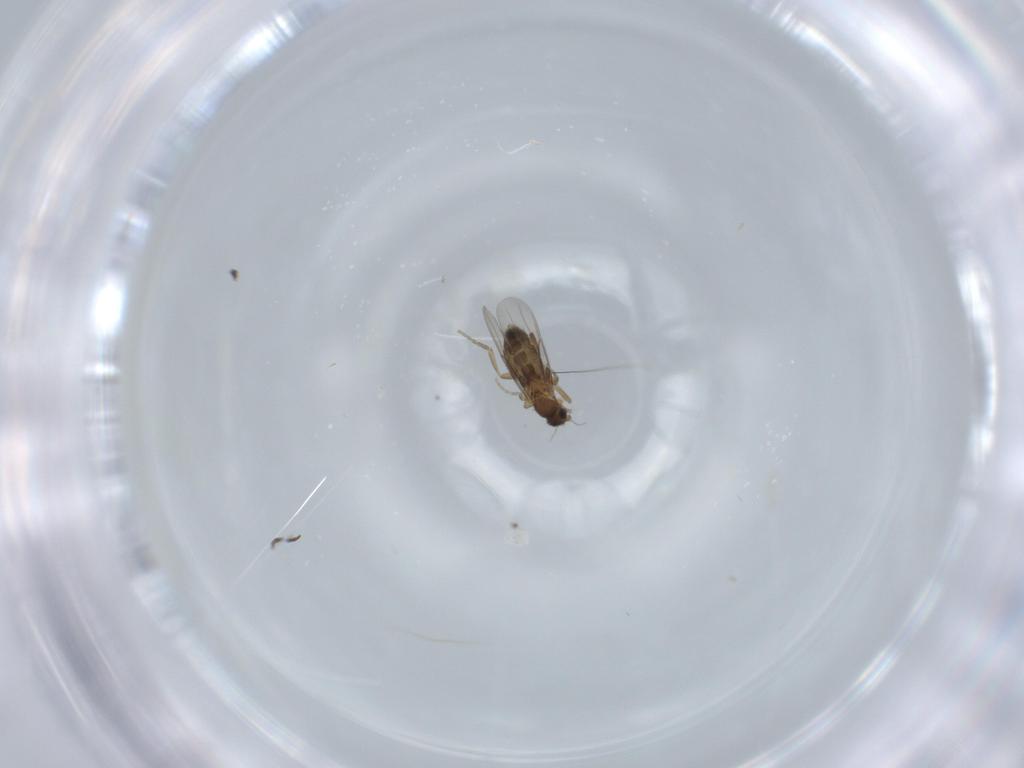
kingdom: Animalia
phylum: Arthropoda
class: Insecta
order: Diptera
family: Phoridae
